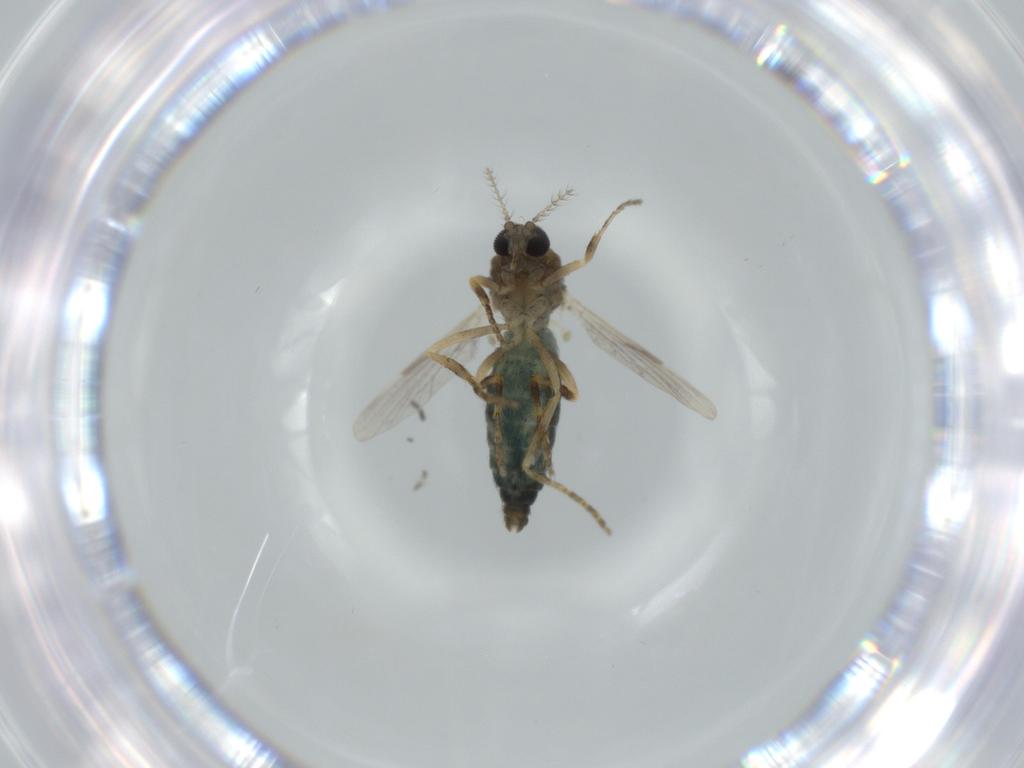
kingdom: Animalia
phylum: Arthropoda
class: Insecta
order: Diptera
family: Ceratopogonidae
